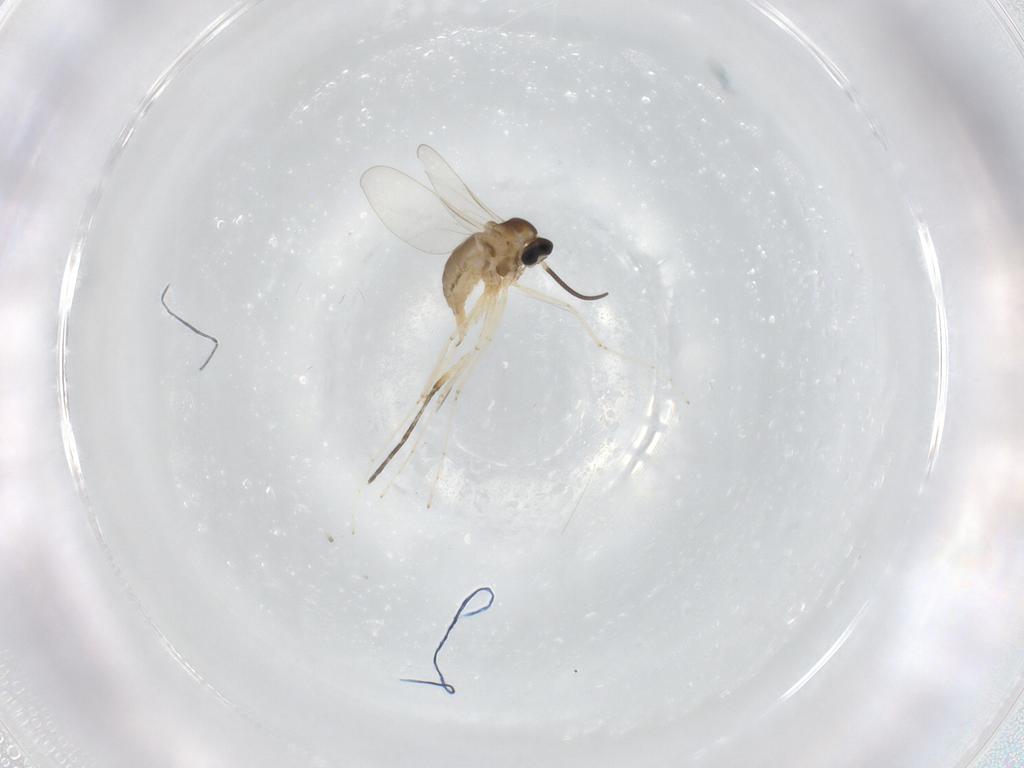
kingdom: Animalia
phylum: Arthropoda
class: Insecta
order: Diptera
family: Cecidomyiidae
